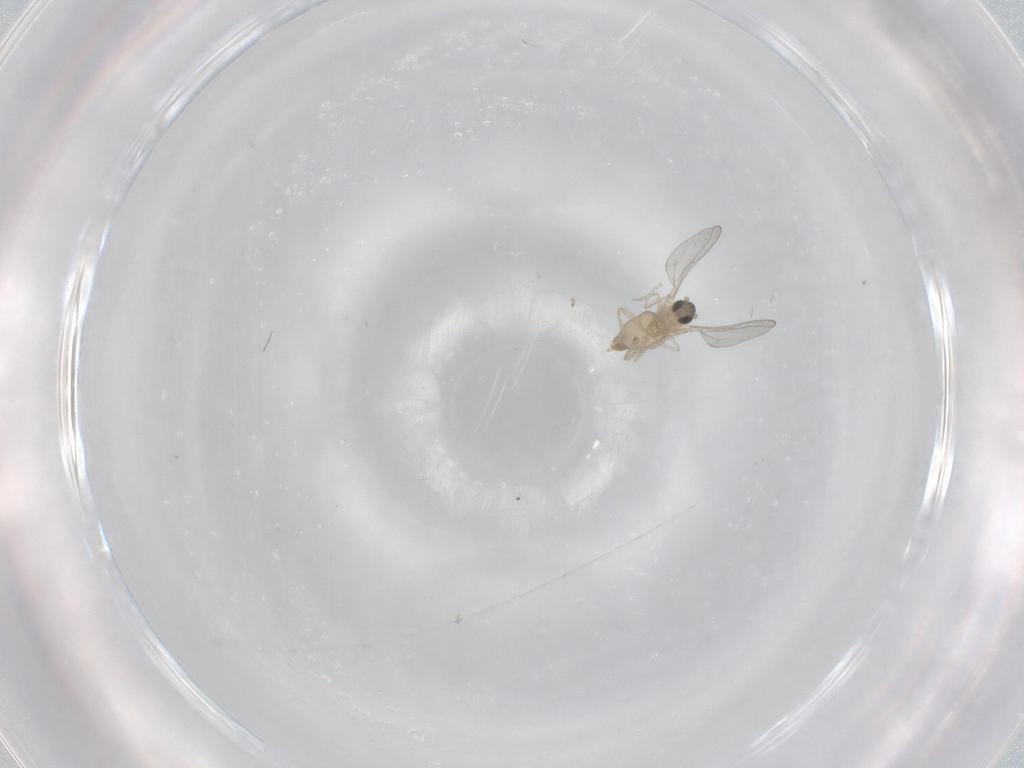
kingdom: Animalia
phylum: Arthropoda
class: Insecta
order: Diptera
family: Cecidomyiidae
